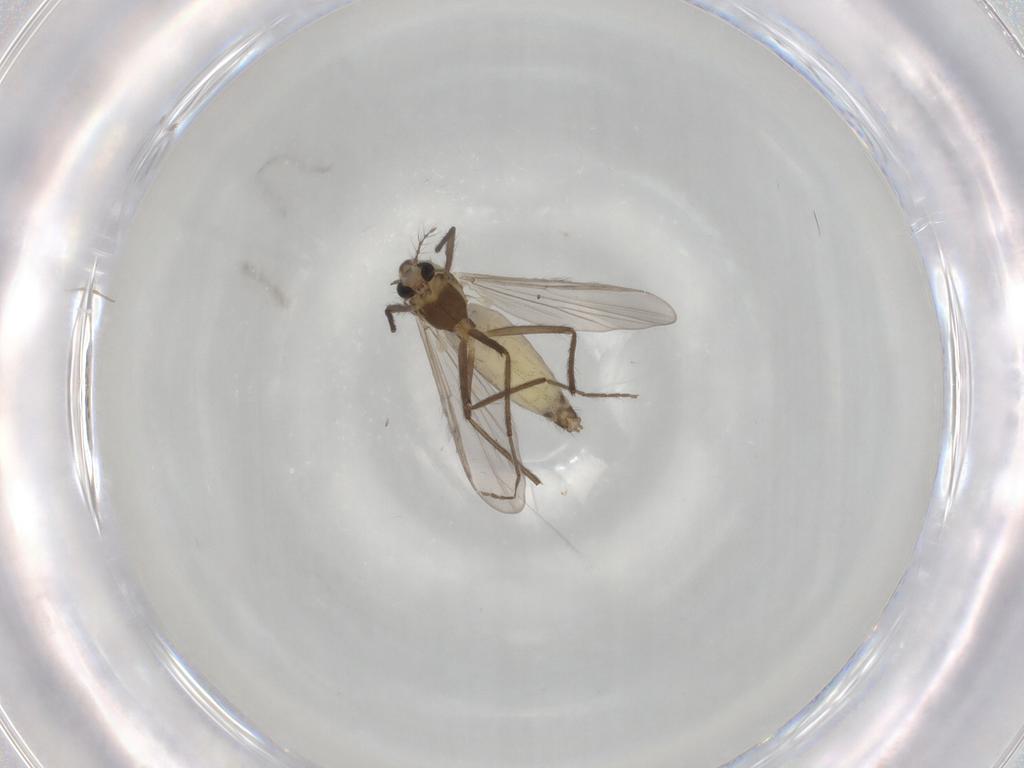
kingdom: Animalia
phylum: Arthropoda
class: Insecta
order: Diptera
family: Chironomidae
